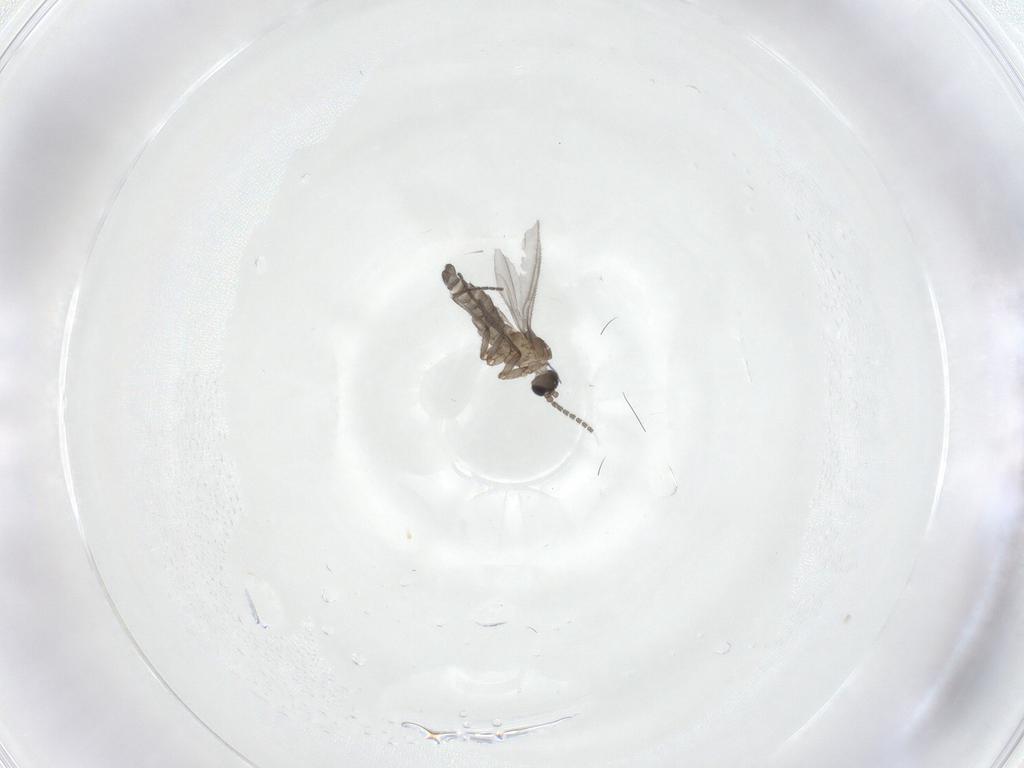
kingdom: Animalia
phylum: Arthropoda
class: Insecta
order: Diptera
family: Sciaridae
